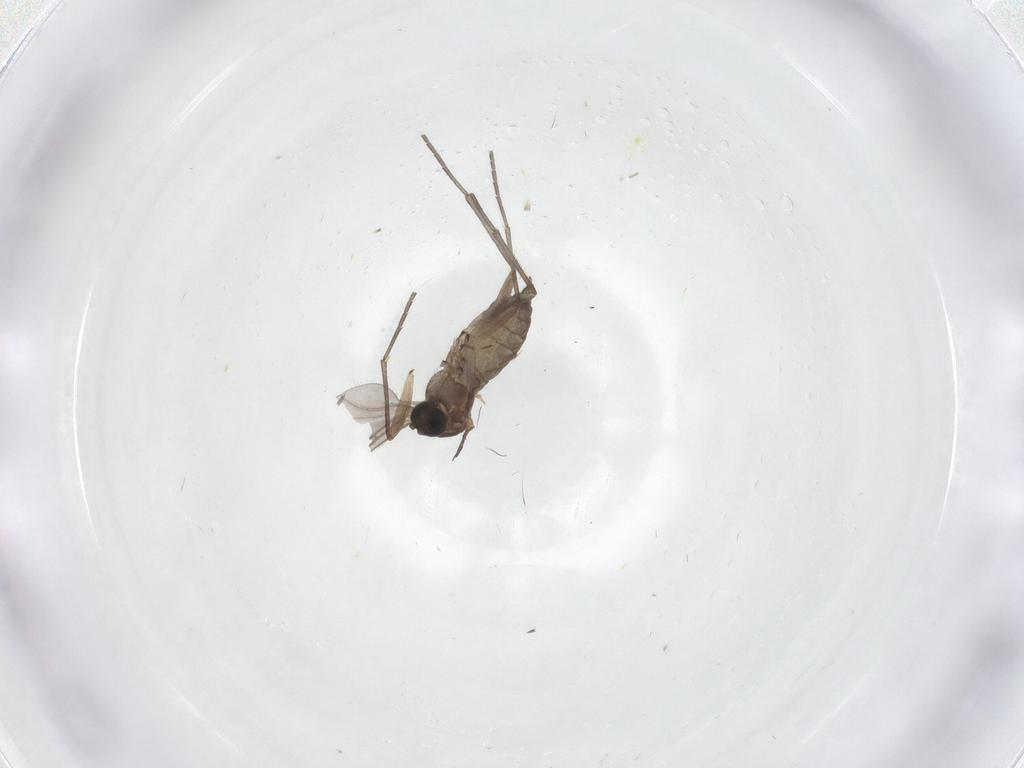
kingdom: Animalia
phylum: Arthropoda
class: Insecta
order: Diptera
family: Sciaridae
